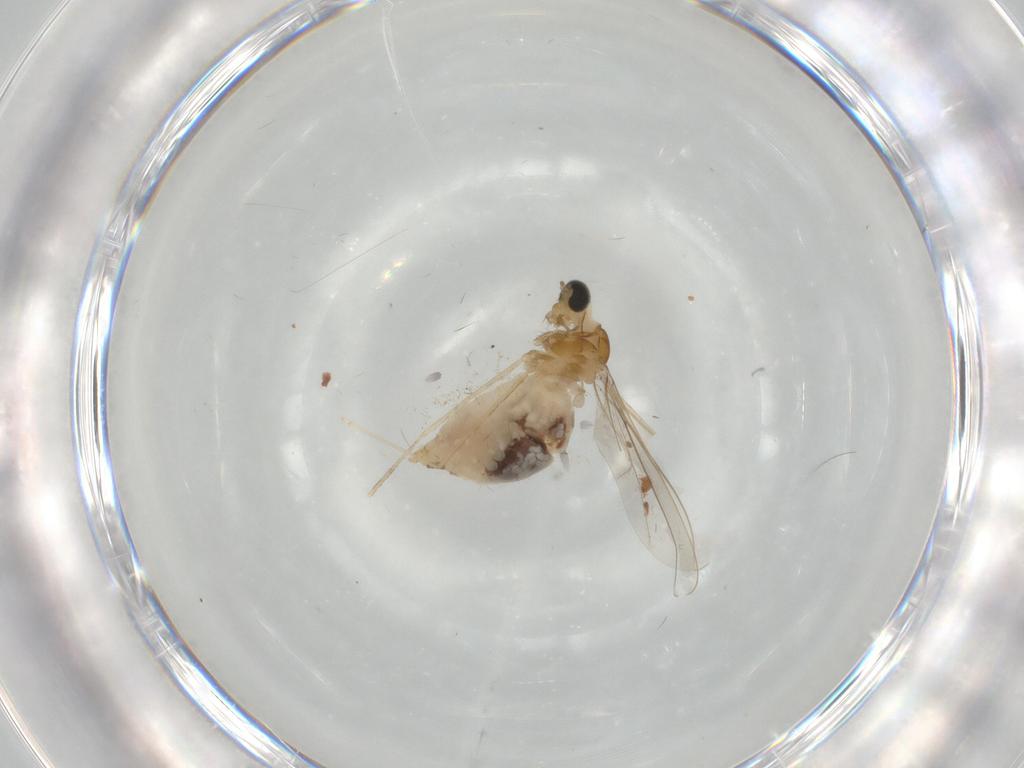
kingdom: Animalia
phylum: Arthropoda
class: Insecta
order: Diptera
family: Cecidomyiidae
